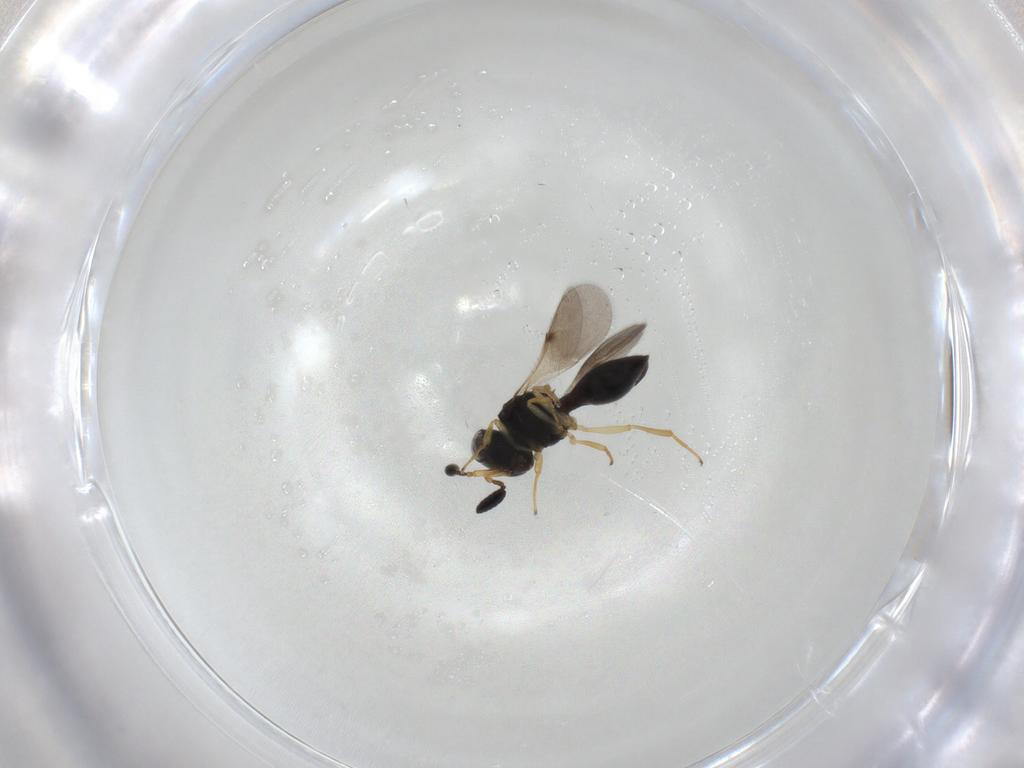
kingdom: Animalia
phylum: Arthropoda
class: Insecta
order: Hymenoptera
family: Scelionidae
